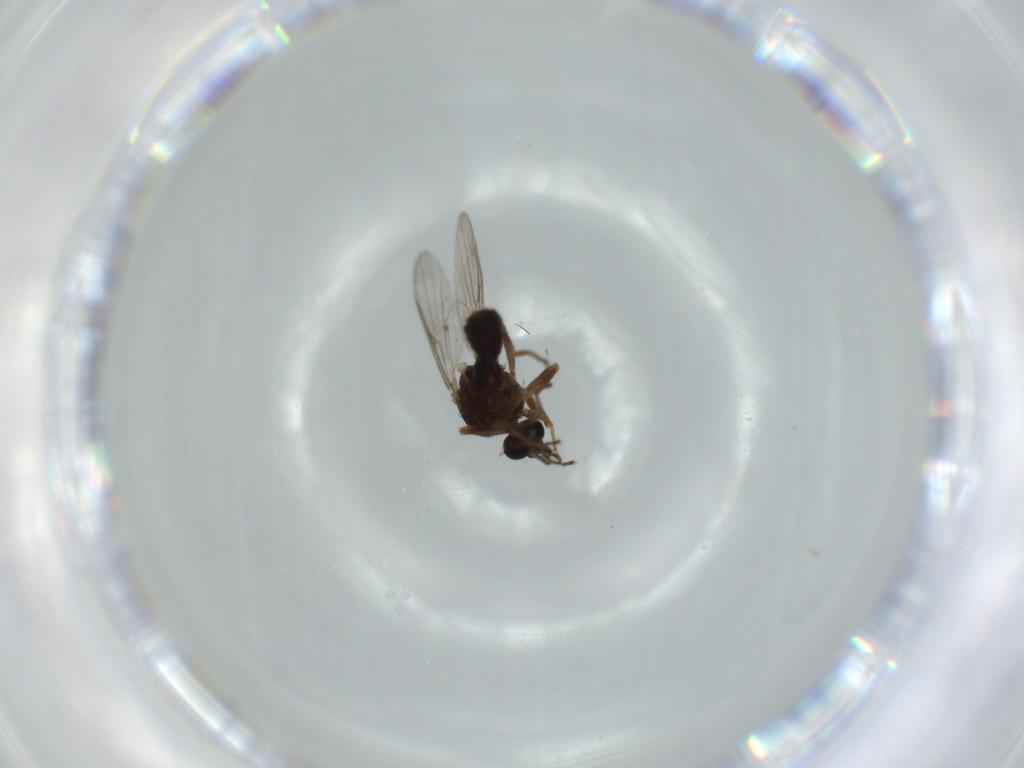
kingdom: Animalia
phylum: Arthropoda
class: Insecta
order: Diptera
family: Ceratopogonidae
